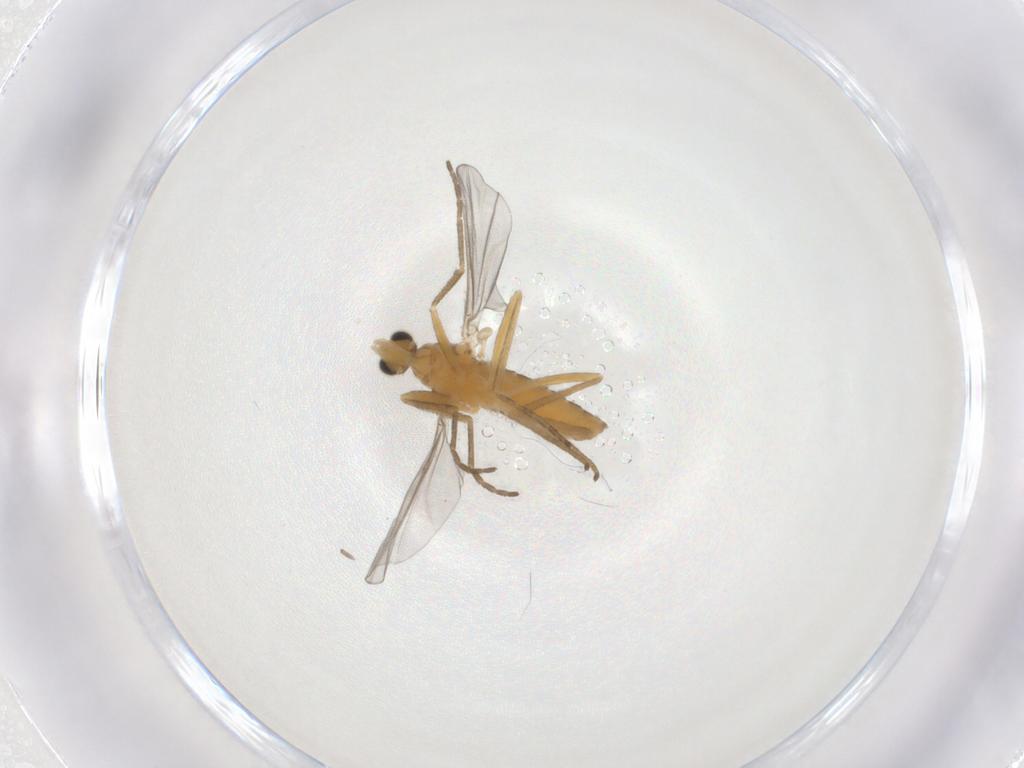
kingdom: Animalia
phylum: Arthropoda
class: Insecta
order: Diptera
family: Cecidomyiidae
